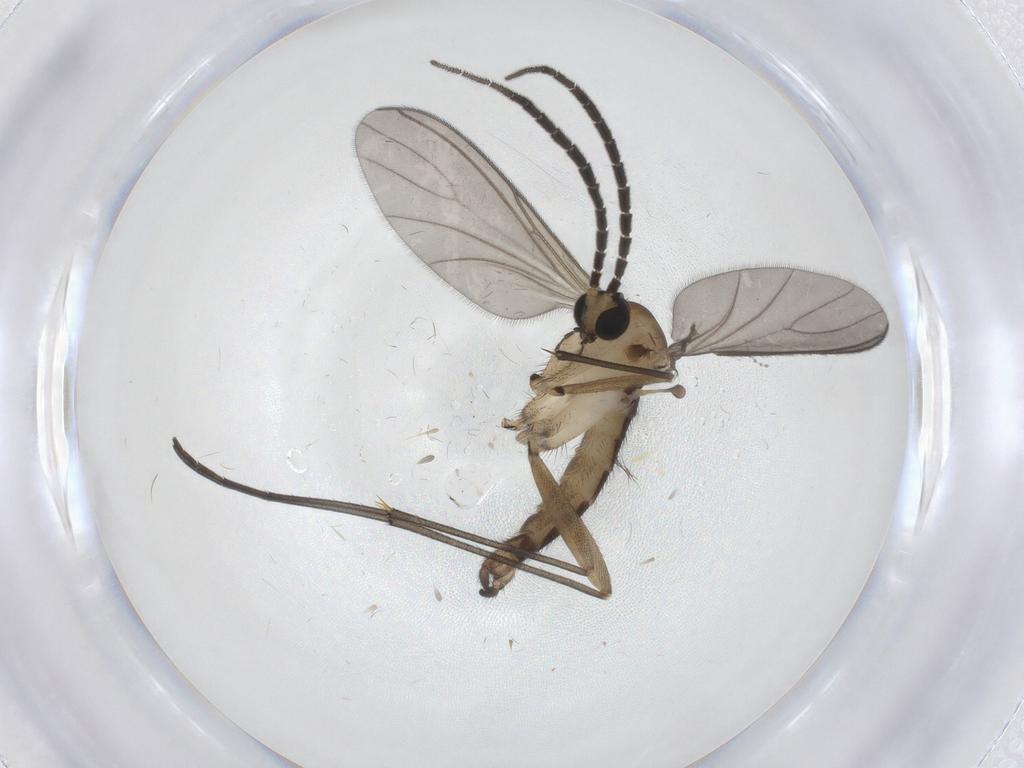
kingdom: Animalia
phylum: Arthropoda
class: Insecta
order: Diptera
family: Sciaridae
